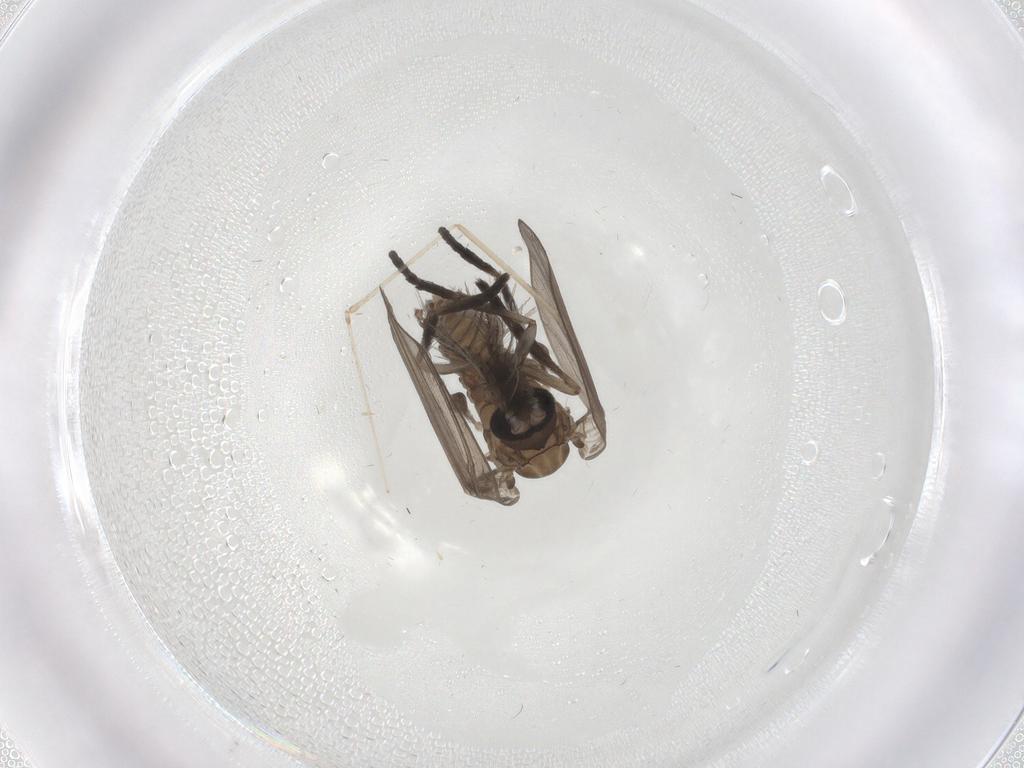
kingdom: Animalia
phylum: Arthropoda
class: Insecta
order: Diptera
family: Psychodidae
